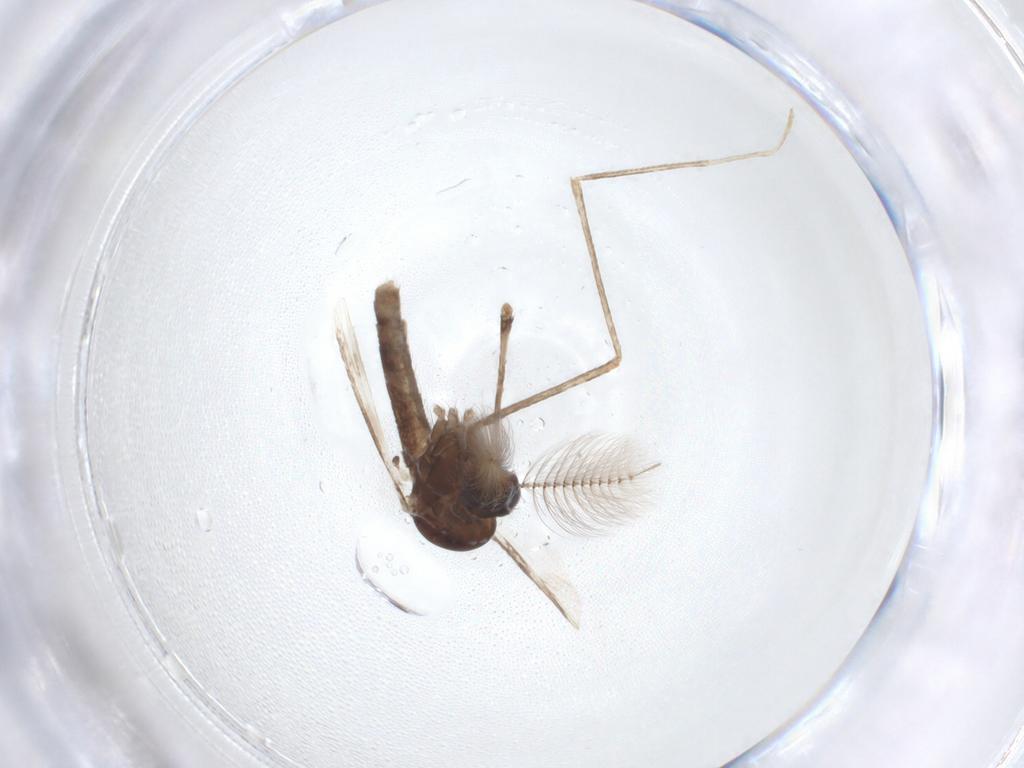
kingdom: Animalia
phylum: Arthropoda
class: Insecta
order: Diptera
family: Culicidae
